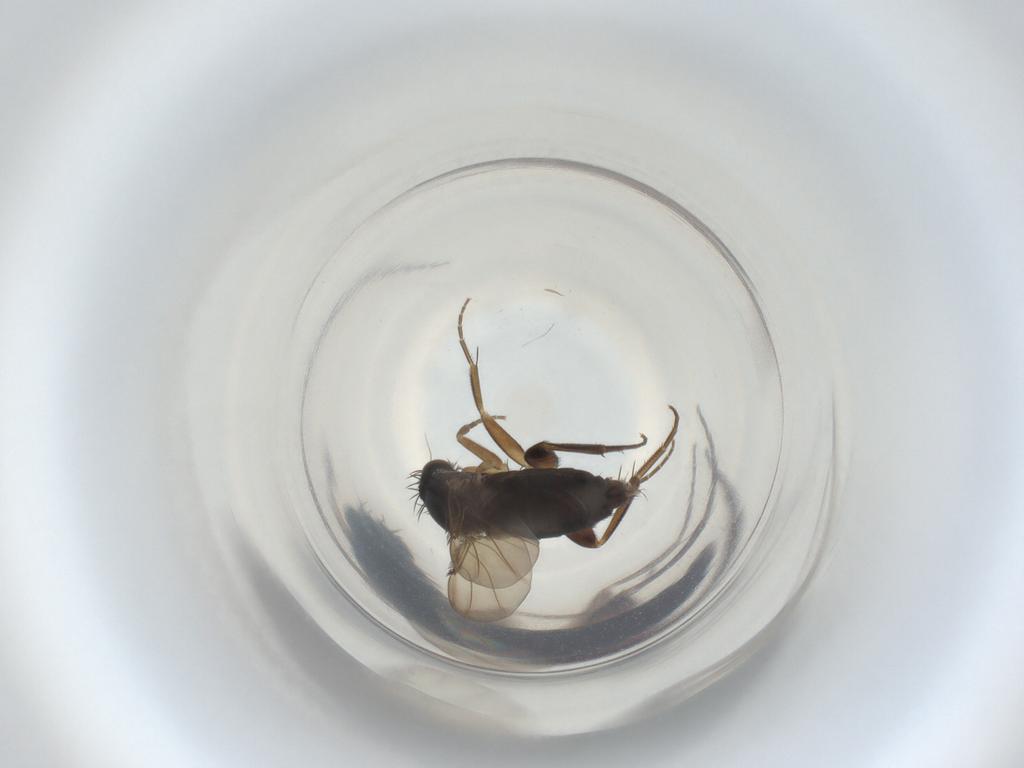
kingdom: Animalia
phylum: Arthropoda
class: Insecta
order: Diptera
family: Phoridae
